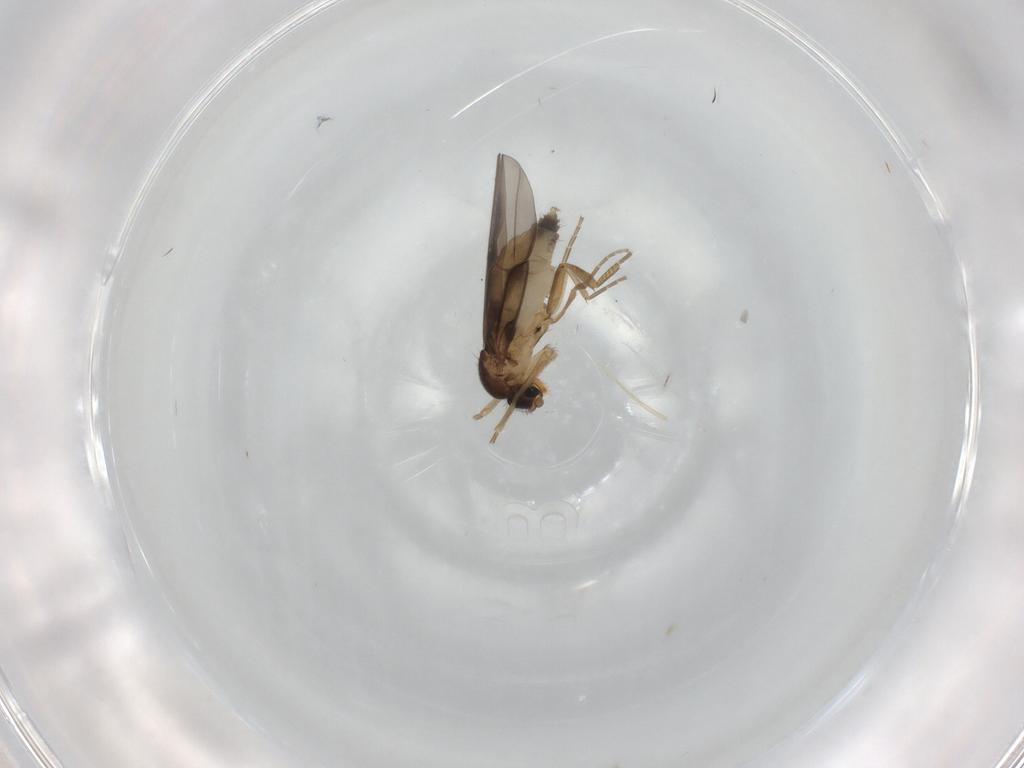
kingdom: Animalia
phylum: Arthropoda
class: Insecta
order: Diptera
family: Phoridae
